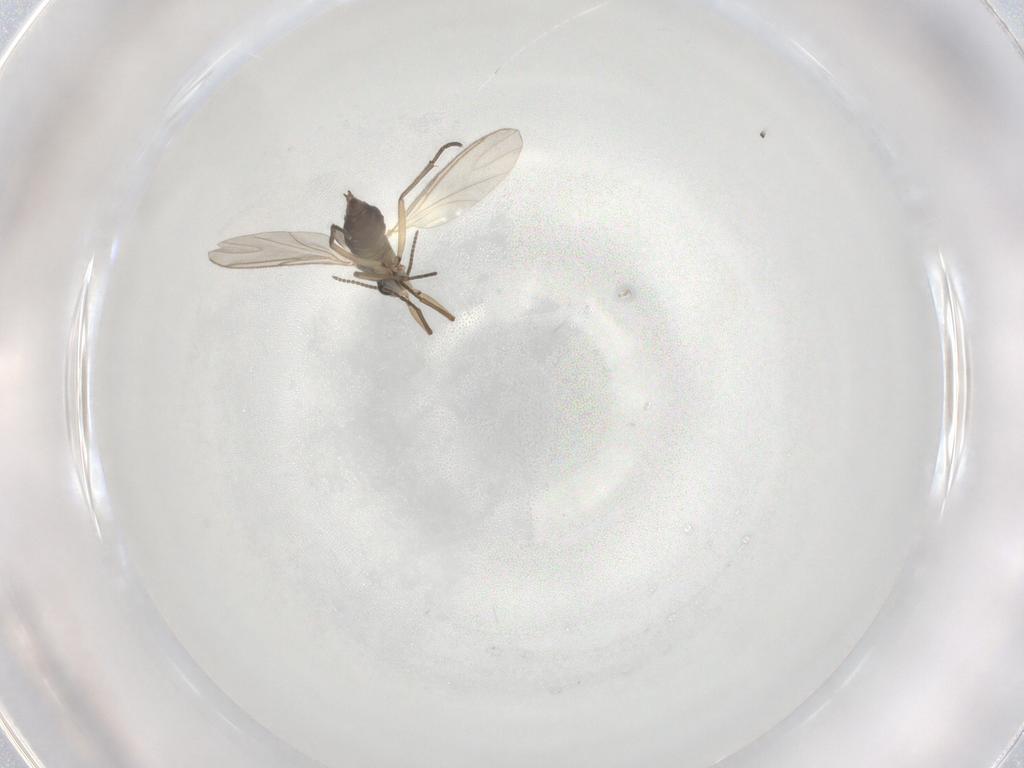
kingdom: Animalia
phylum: Arthropoda
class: Insecta
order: Diptera
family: Sciaridae
